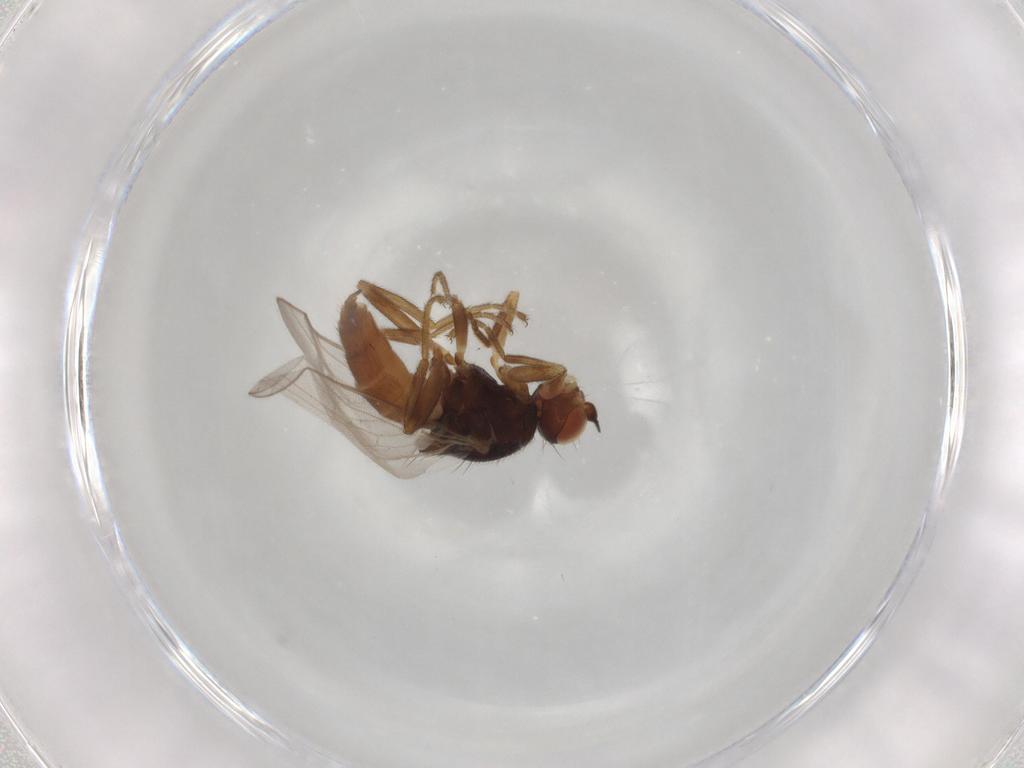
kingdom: Animalia
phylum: Arthropoda
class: Insecta
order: Diptera
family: Chloropidae
